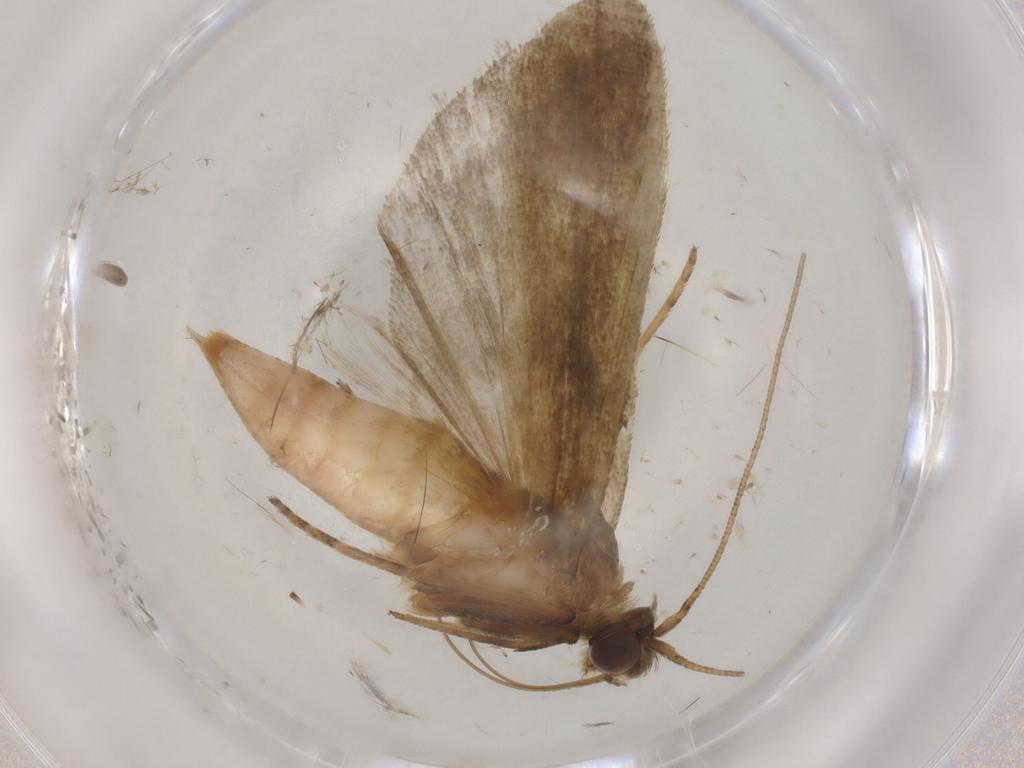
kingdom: Animalia
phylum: Arthropoda
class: Insecta
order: Lepidoptera
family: Noctuidae
